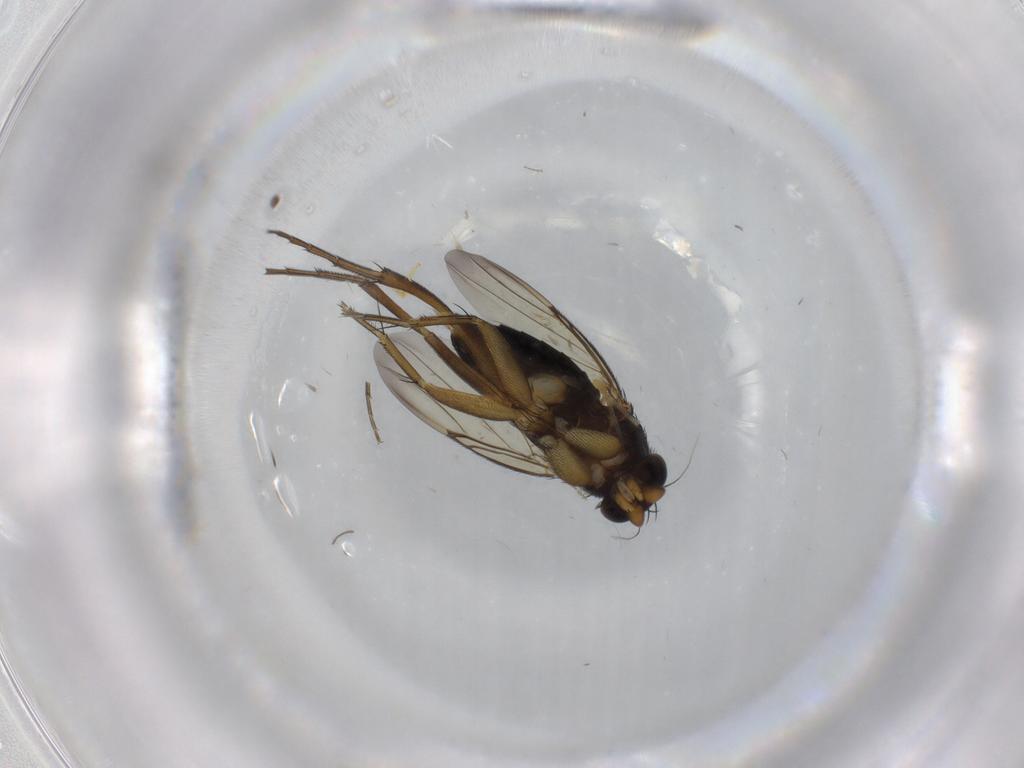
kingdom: Animalia
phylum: Arthropoda
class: Insecta
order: Diptera
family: Phoridae
